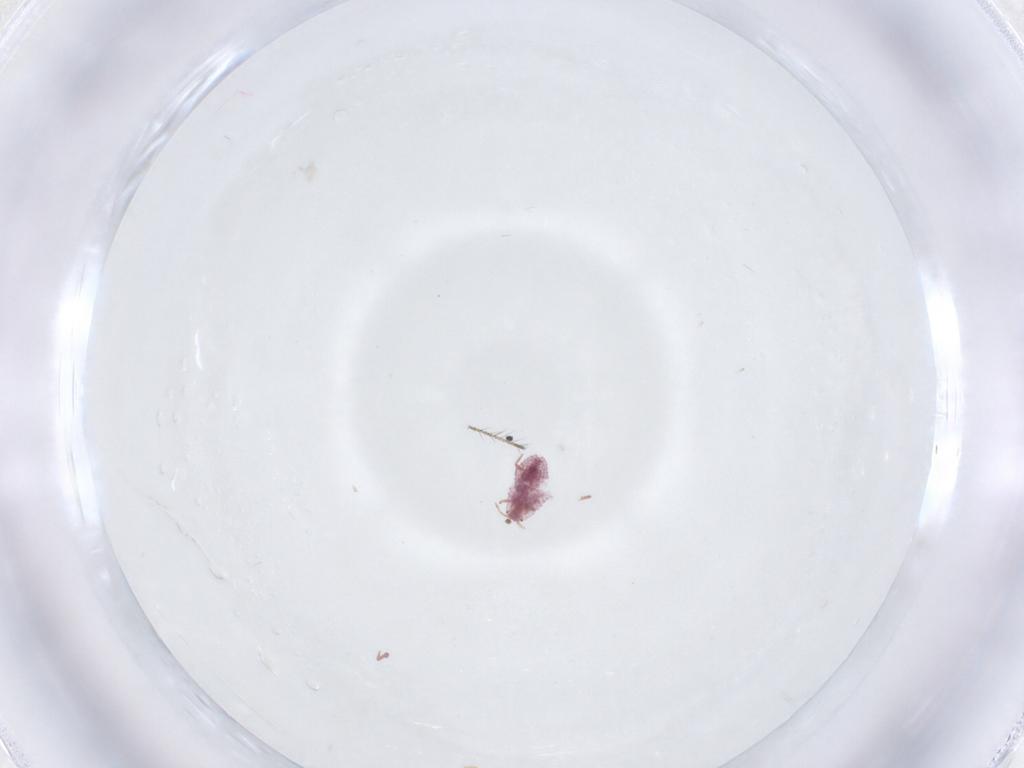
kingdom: Animalia
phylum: Arthropoda
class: Insecta
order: Hemiptera
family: Pseudococcidae
